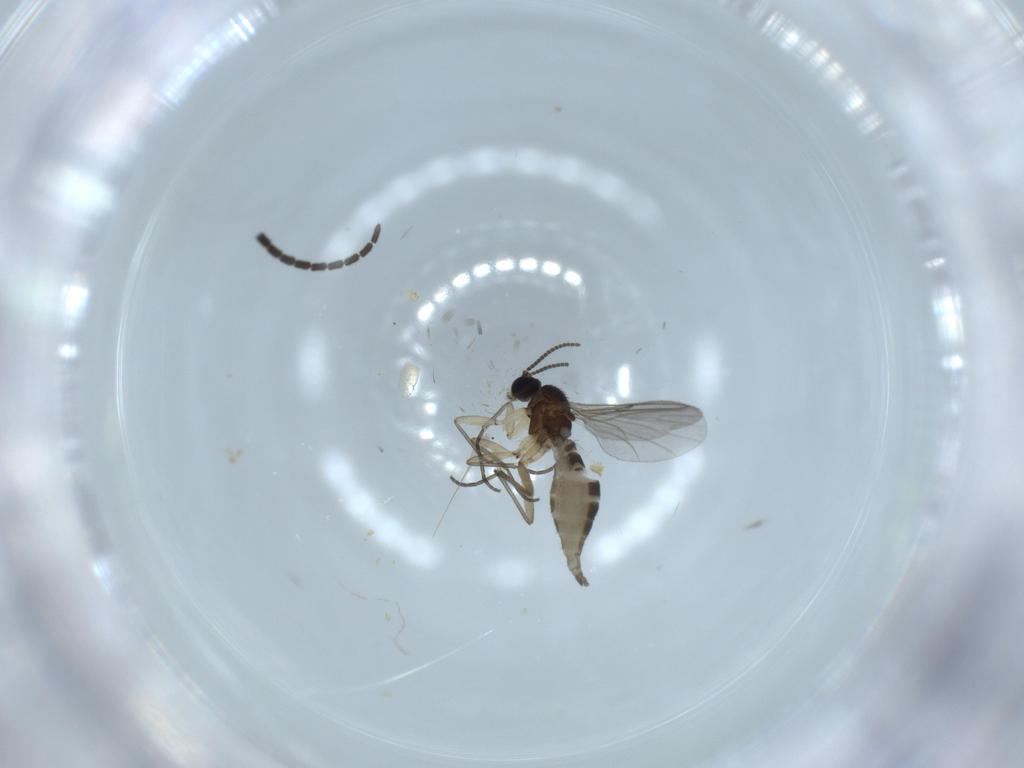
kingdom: Animalia
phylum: Arthropoda
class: Insecta
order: Diptera
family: Sciaridae
